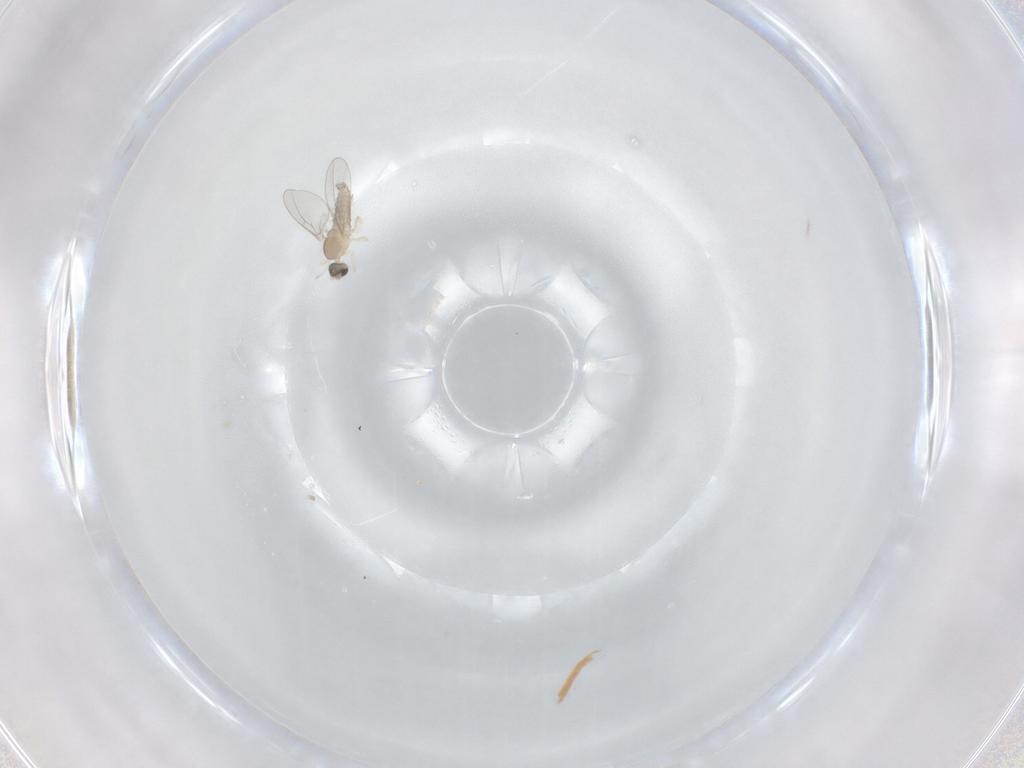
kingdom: Animalia
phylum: Arthropoda
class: Insecta
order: Diptera
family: Cecidomyiidae
